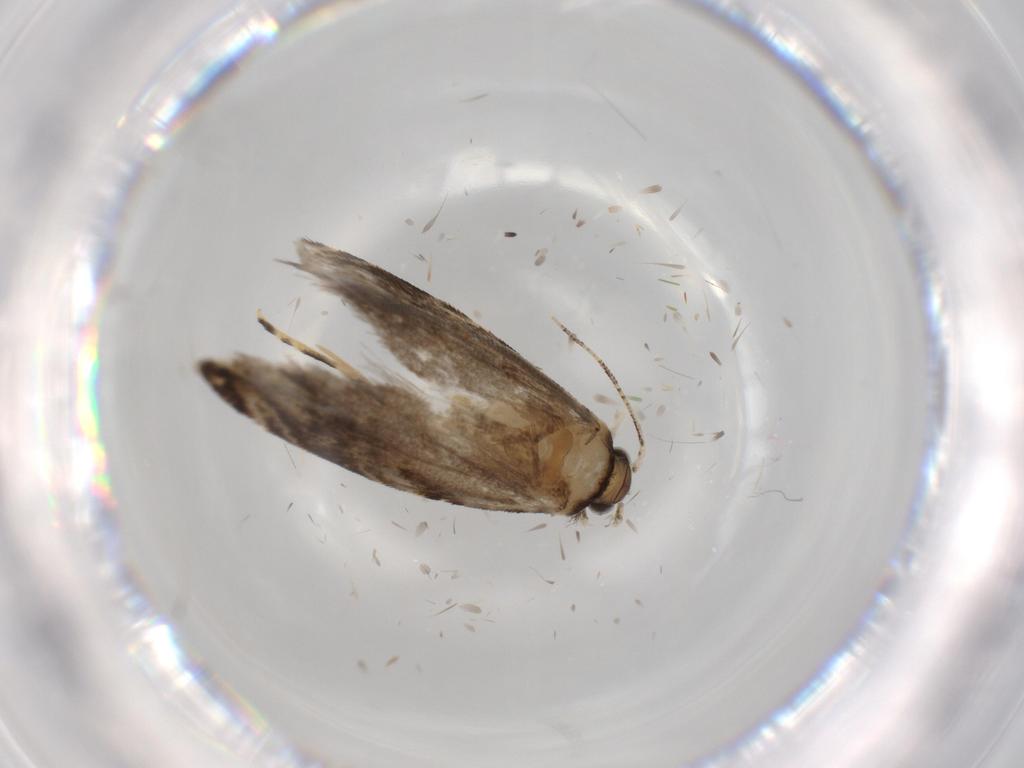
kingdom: Animalia
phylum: Arthropoda
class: Insecta
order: Lepidoptera
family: Tineidae
